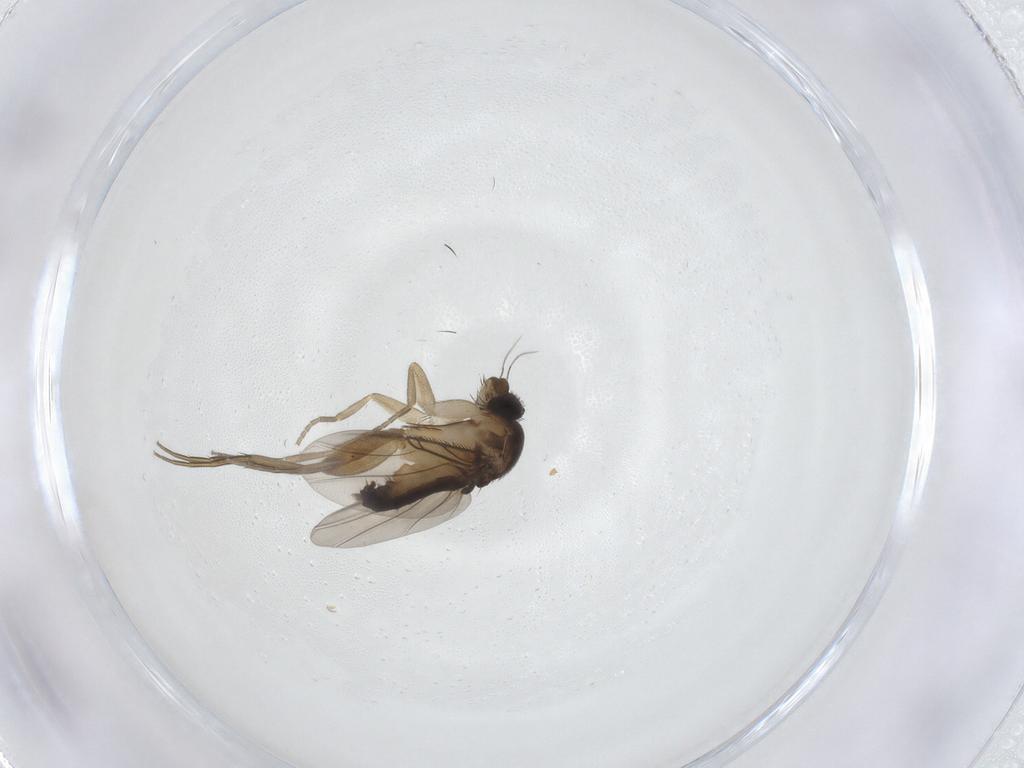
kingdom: Animalia
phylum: Arthropoda
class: Insecta
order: Diptera
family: Phoridae
